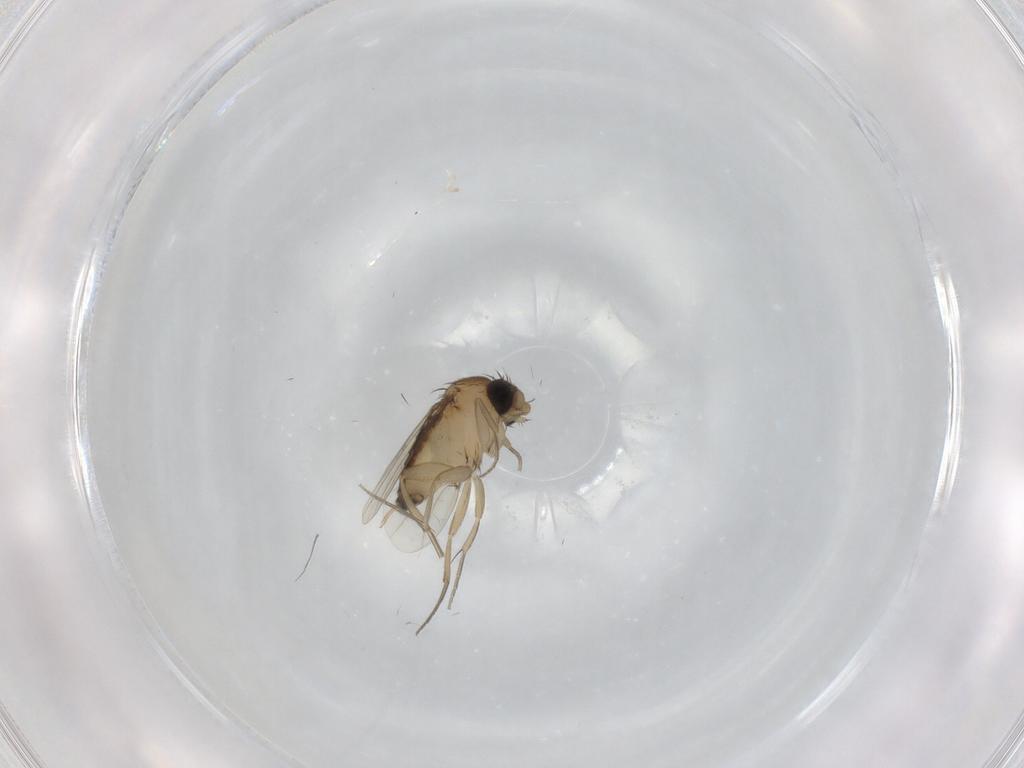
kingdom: Animalia
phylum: Arthropoda
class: Insecta
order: Diptera
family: Phoridae
